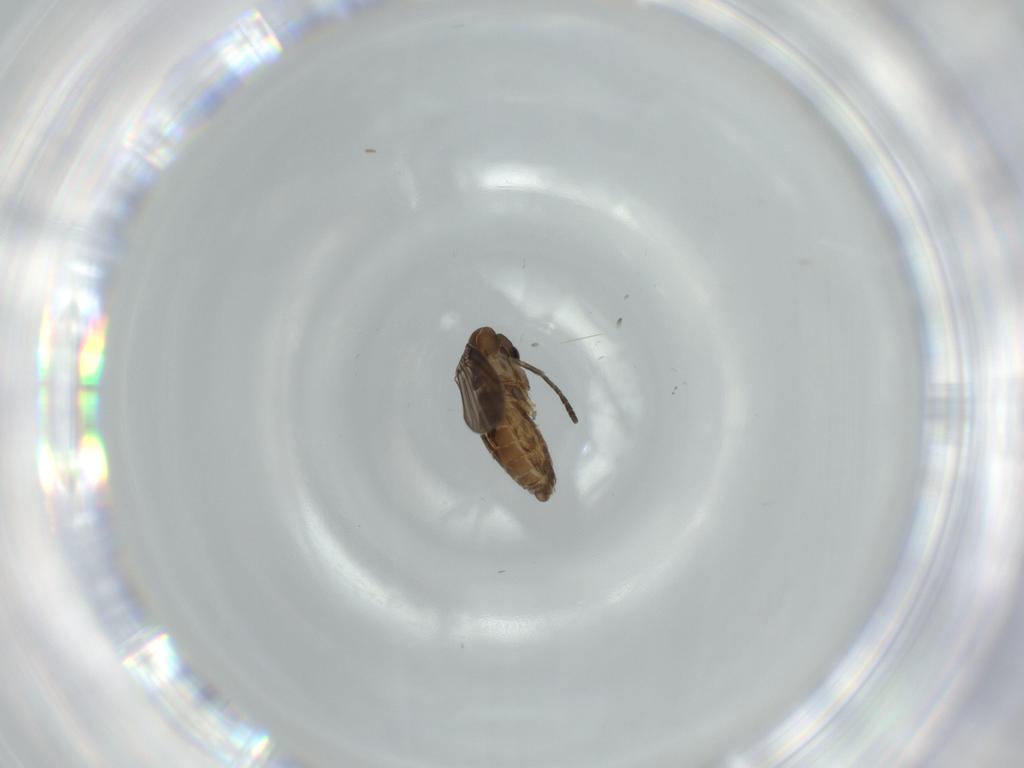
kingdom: Animalia
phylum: Arthropoda
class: Insecta
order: Diptera
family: Psychodidae
